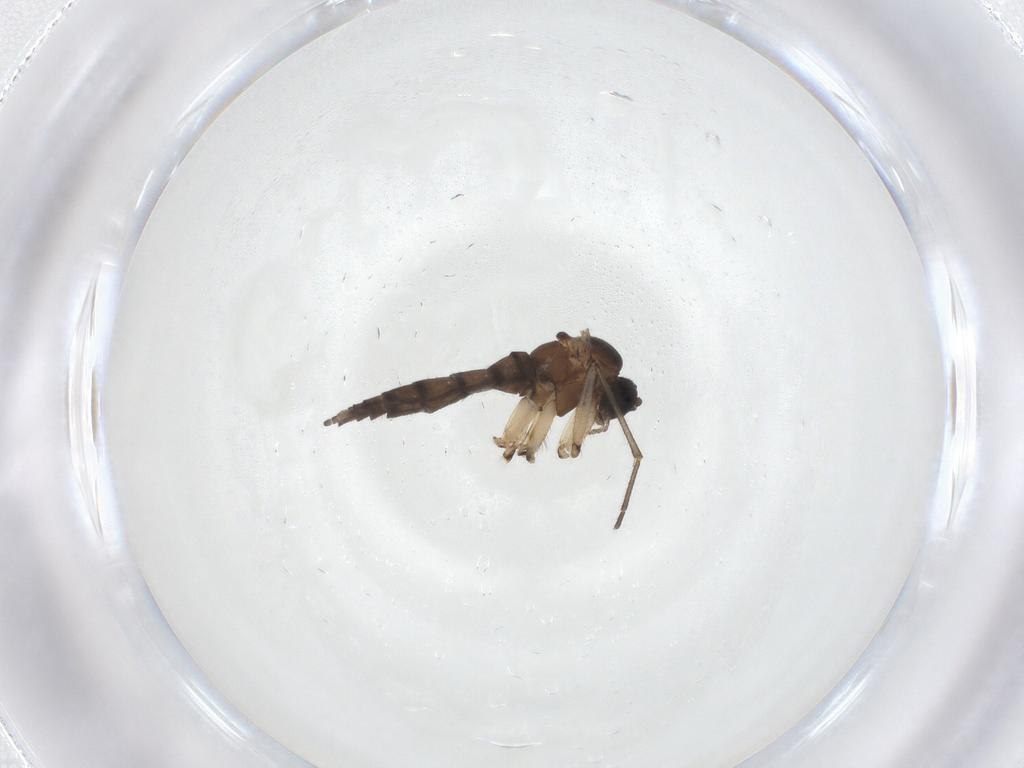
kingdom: Animalia
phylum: Arthropoda
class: Insecta
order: Diptera
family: Sciaridae
